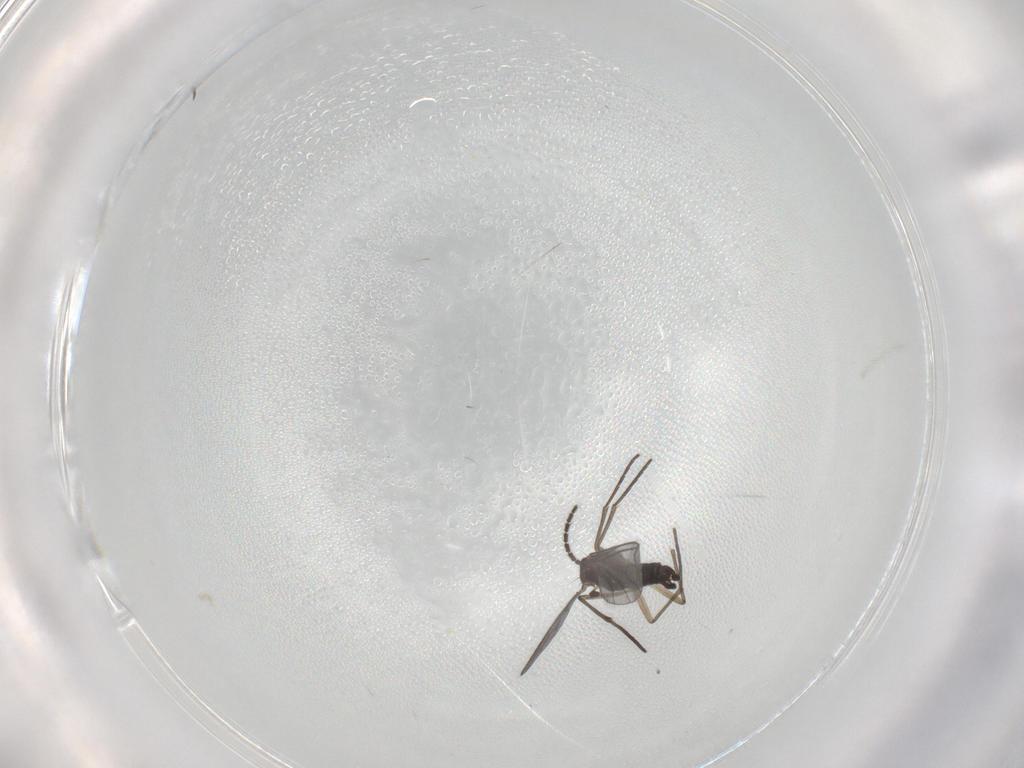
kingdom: Animalia
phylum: Arthropoda
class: Insecta
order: Diptera
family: Sciaridae
